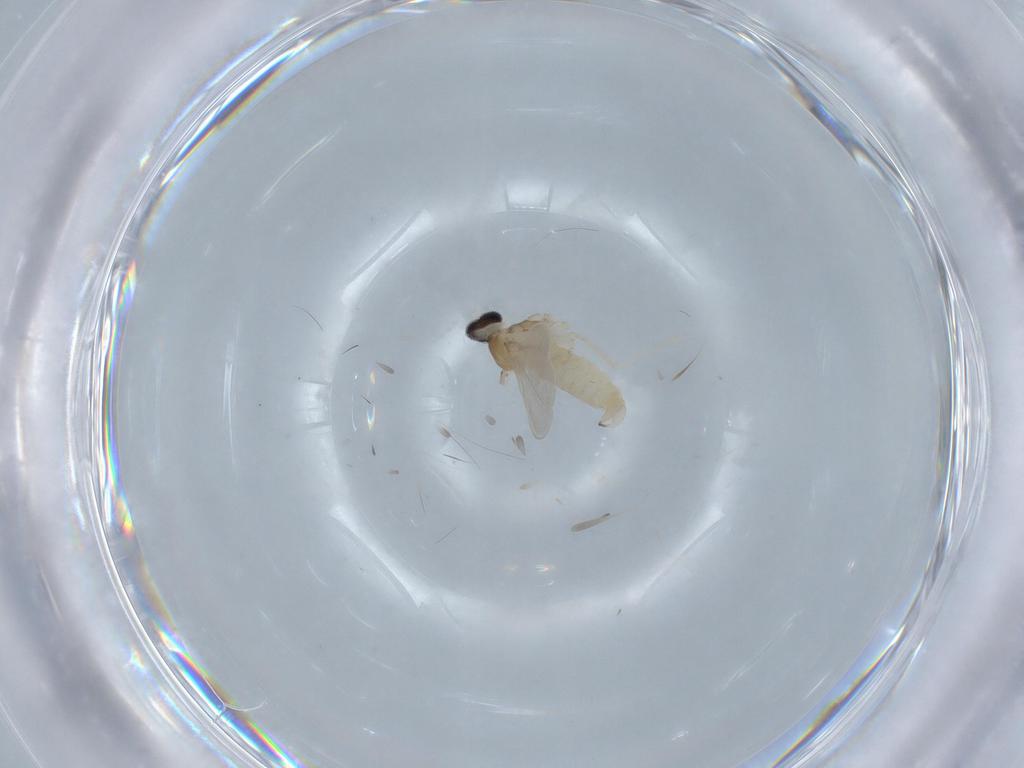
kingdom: Animalia
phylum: Arthropoda
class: Insecta
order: Diptera
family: Cecidomyiidae
